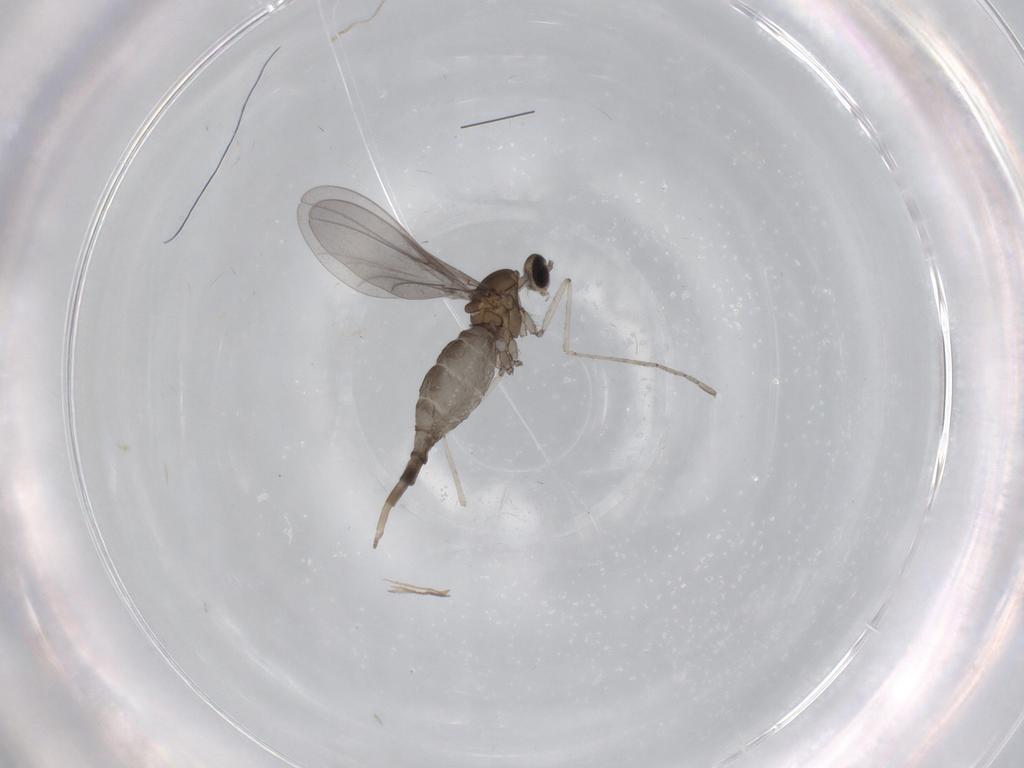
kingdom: Animalia
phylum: Arthropoda
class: Insecta
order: Diptera
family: Cecidomyiidae
